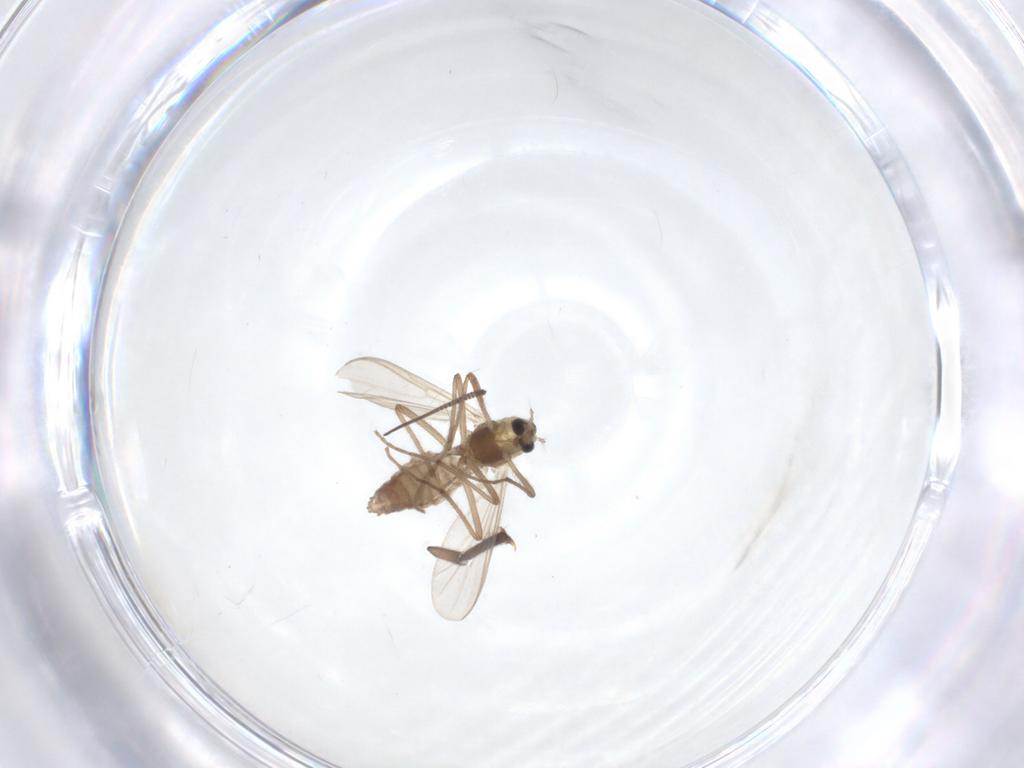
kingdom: Animalia
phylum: Arthropoda
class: Insecta
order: Diptera
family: Chironomidae
